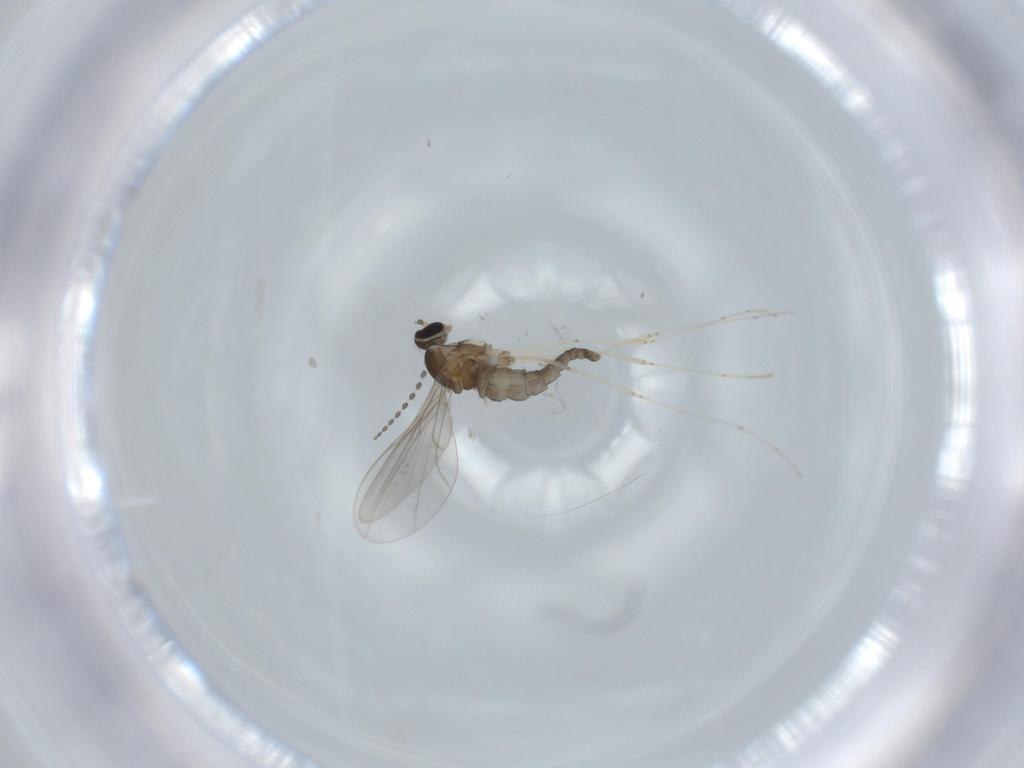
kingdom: Animalia
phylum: Arthropoda
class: Insecta
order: Diptera
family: Cecidomyiidae
